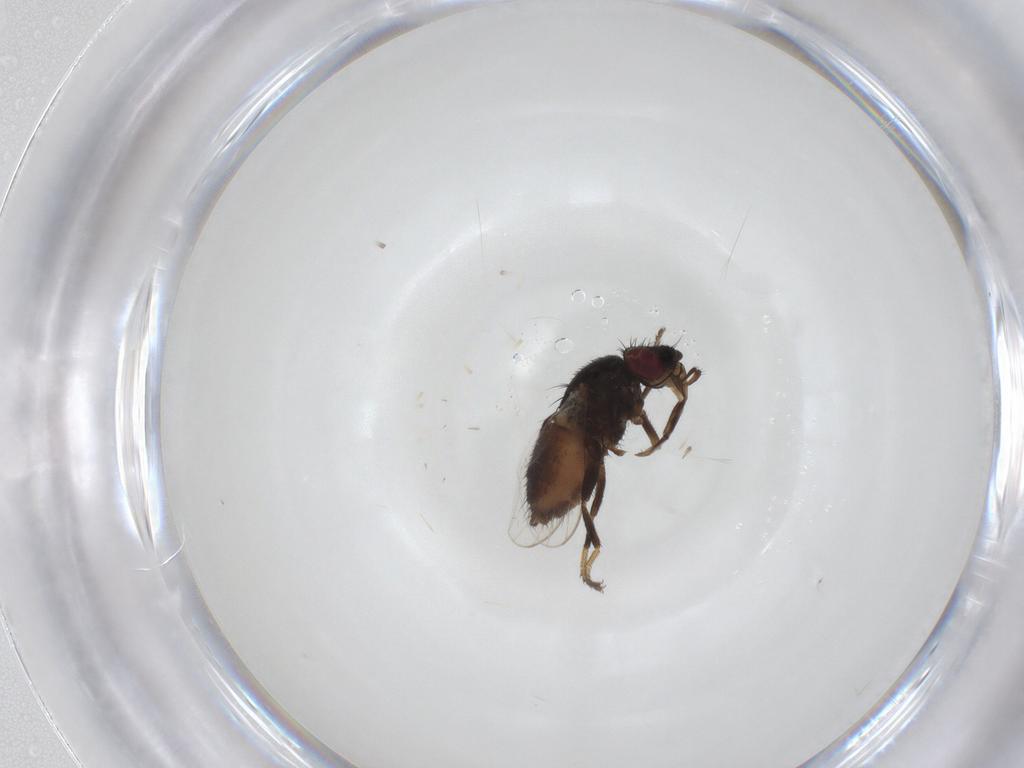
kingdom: Animalia
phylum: Arthropoda
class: Insecta
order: Diptera
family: Milichiidae
